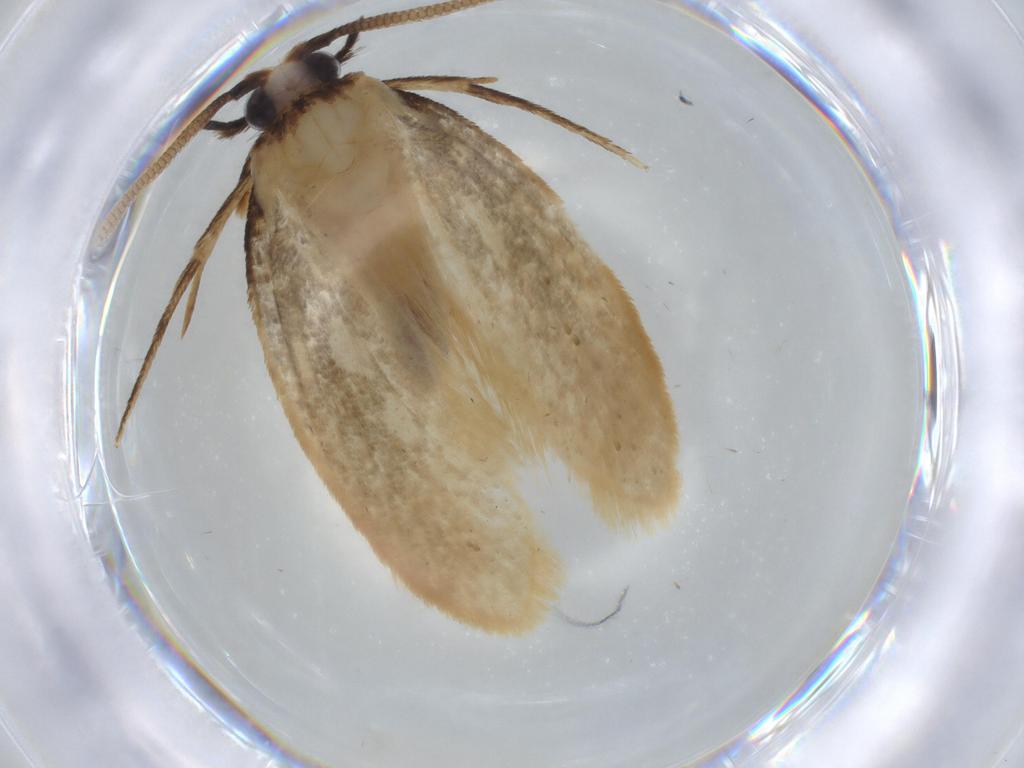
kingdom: Animalia
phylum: Arthropoda
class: Insecta
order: Lepidoptera
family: Tineidae
